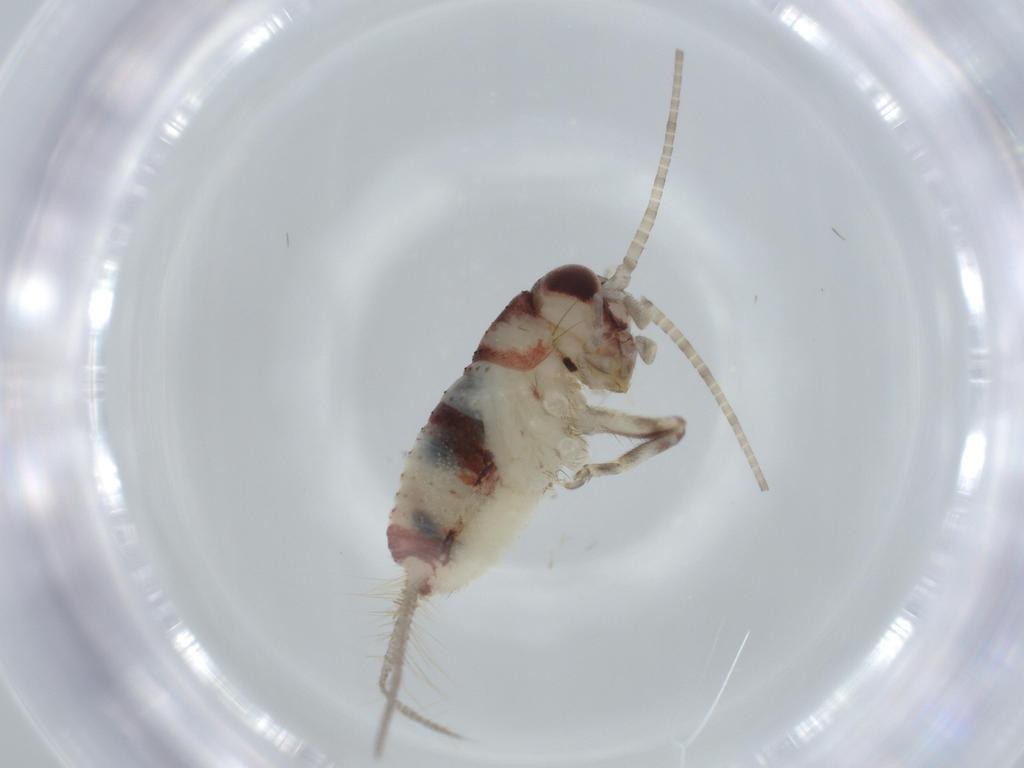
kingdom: Animalia
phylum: Arthropoda
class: Insecta
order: Orthoptera
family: Trigonidiidae
